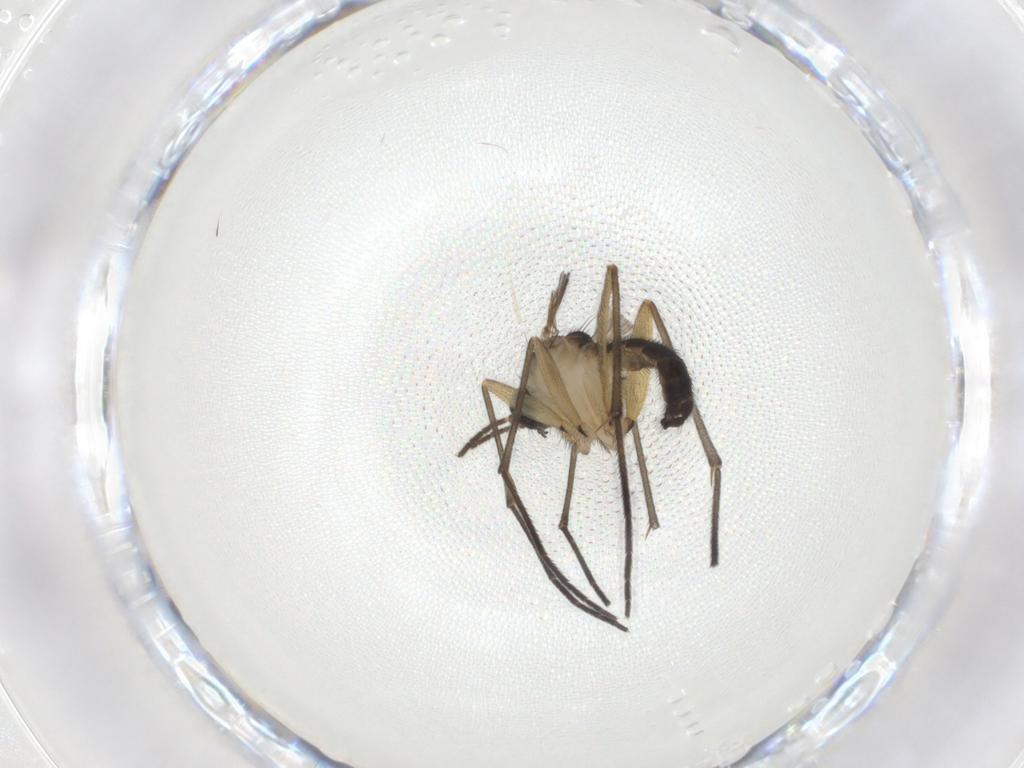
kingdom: Animalia
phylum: Arthropoda
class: Insecta
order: Diptera
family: Sciaridae
